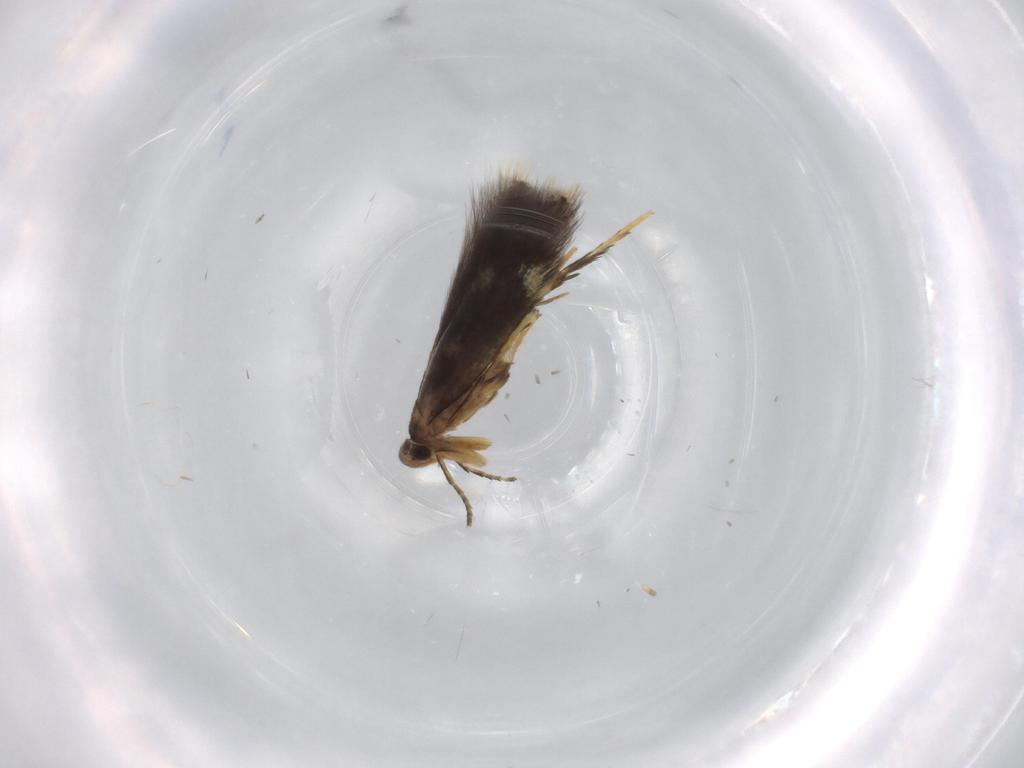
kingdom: Animalia
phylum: Arthropoda
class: Insecta
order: Lepidoptera
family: Heliozelidae
